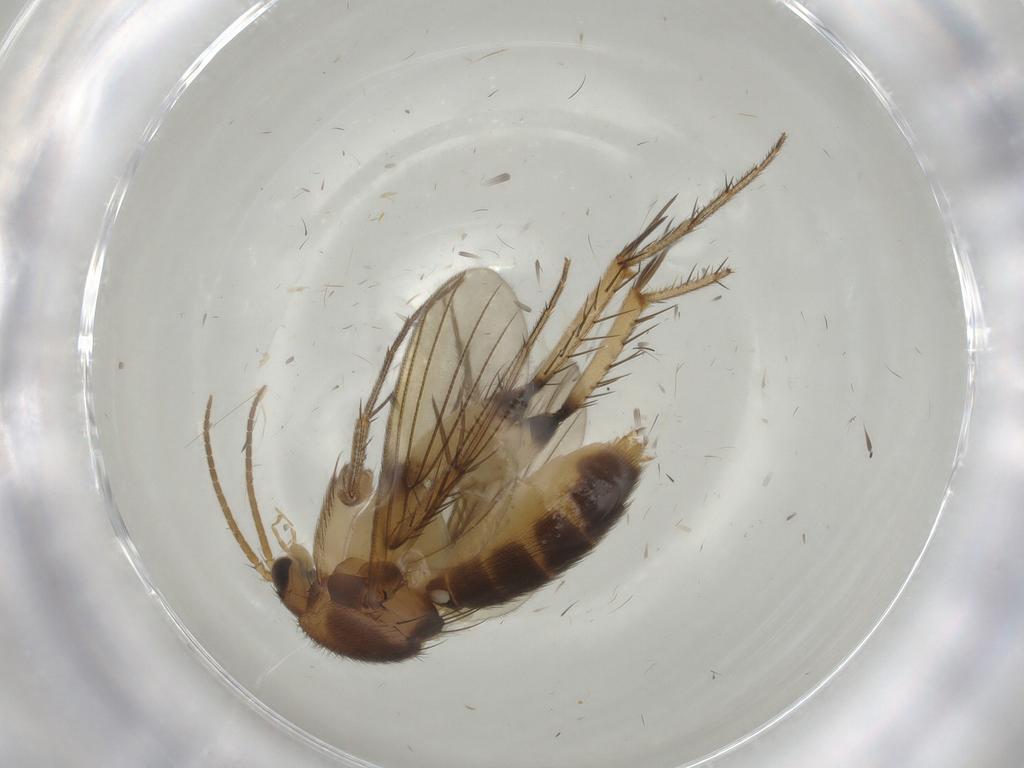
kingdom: Animalia
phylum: Arthropoda
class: Insecta
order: Diptera
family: Mycetophilidae
